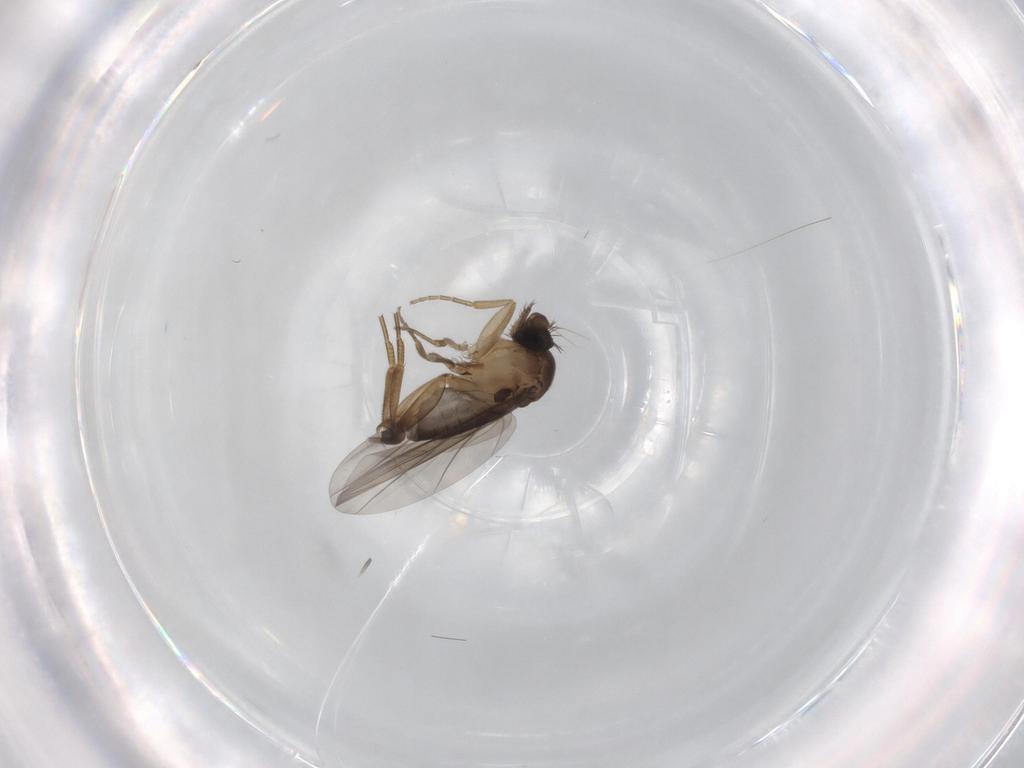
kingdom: Animalia
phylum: Arthropoda
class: Insecta
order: Diptera
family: Phoridae
